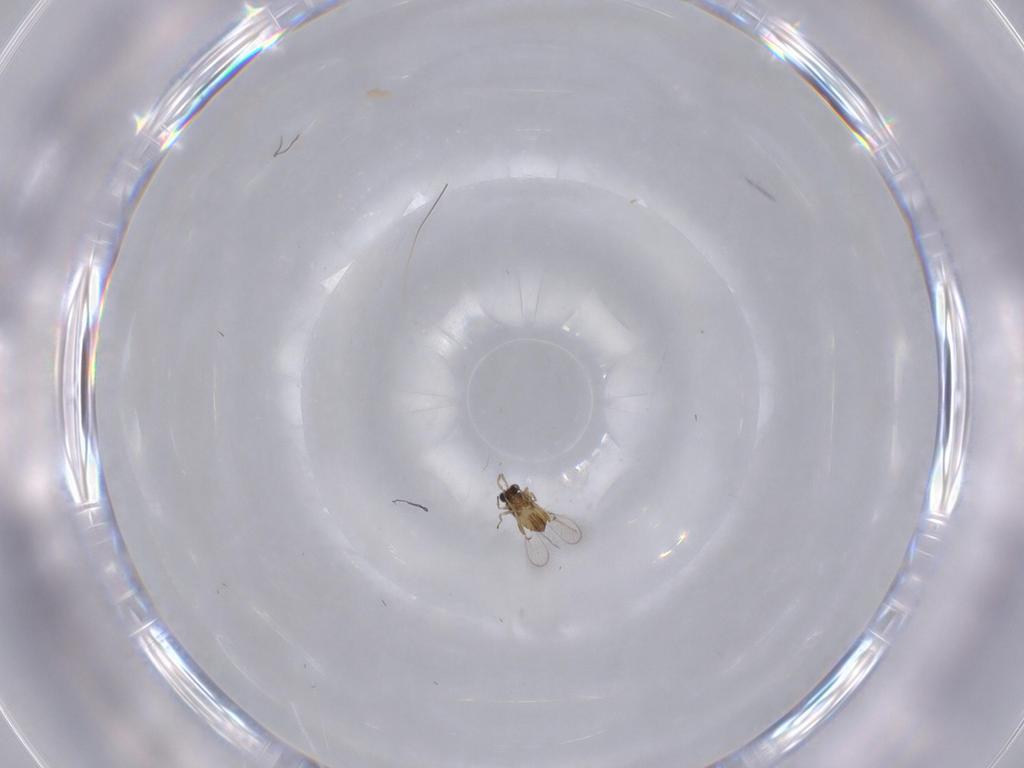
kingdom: Animalia
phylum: Arthropoda
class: Insecta
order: Hymenoptera
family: Trichogrammatidae
